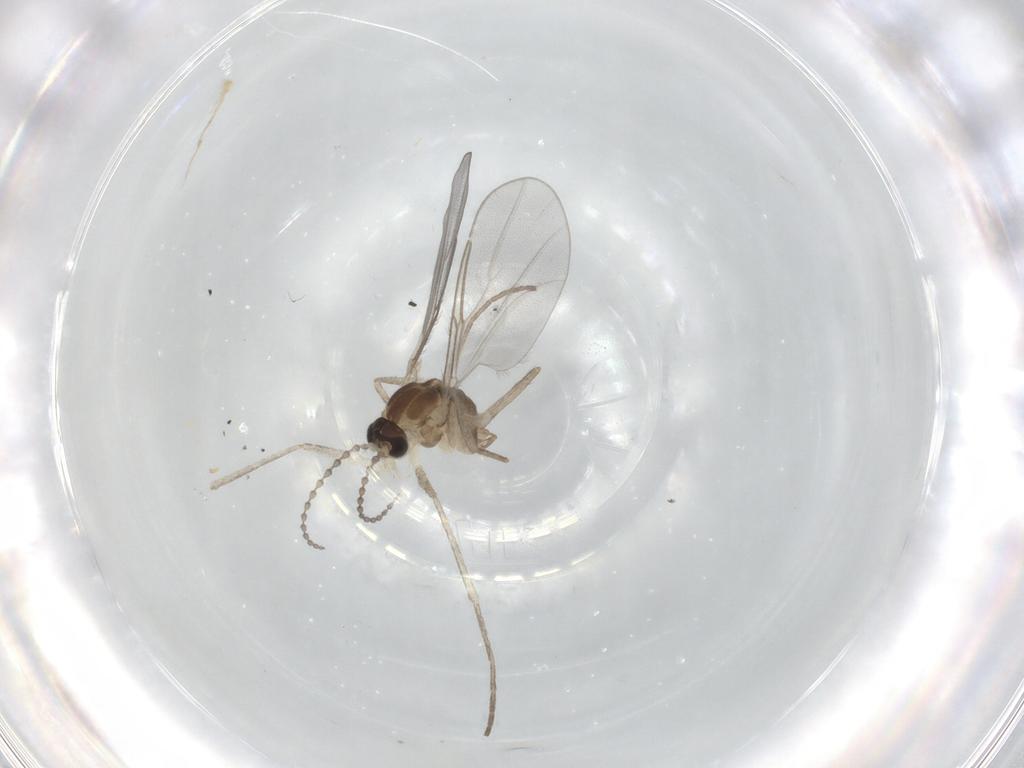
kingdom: Animalia
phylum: Arthropoda
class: Insecta
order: Diptera
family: Cecidomyiidae
